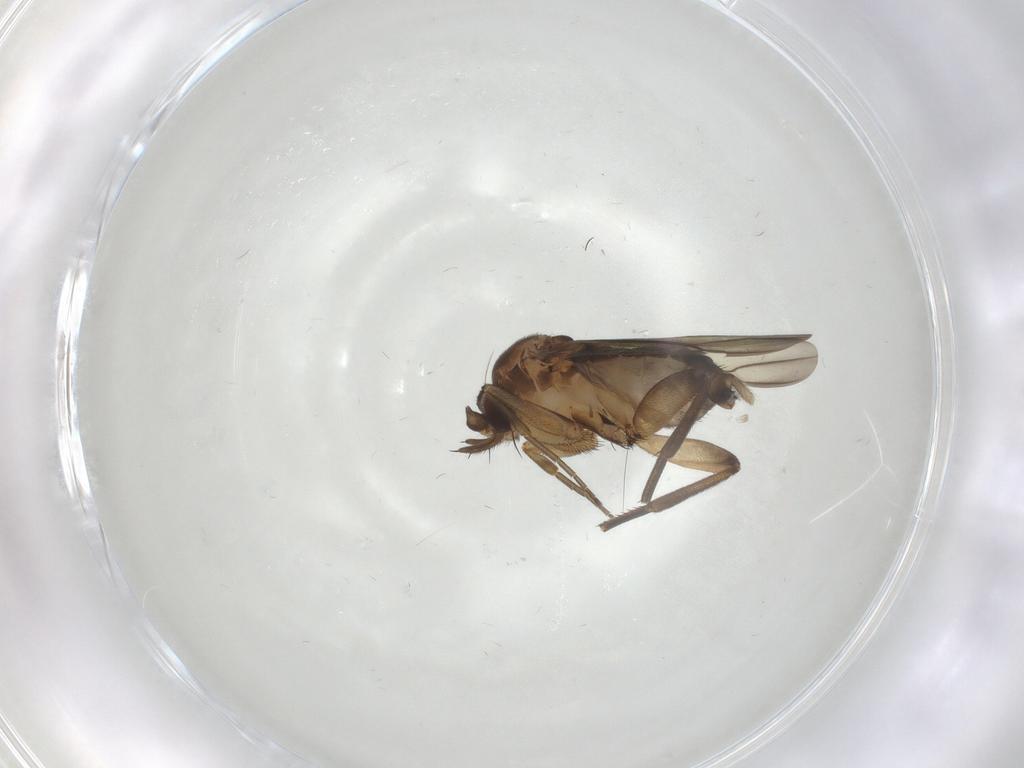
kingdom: Animalia
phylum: Arthropoda
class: Insecta
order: Diptera
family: Phoridae
